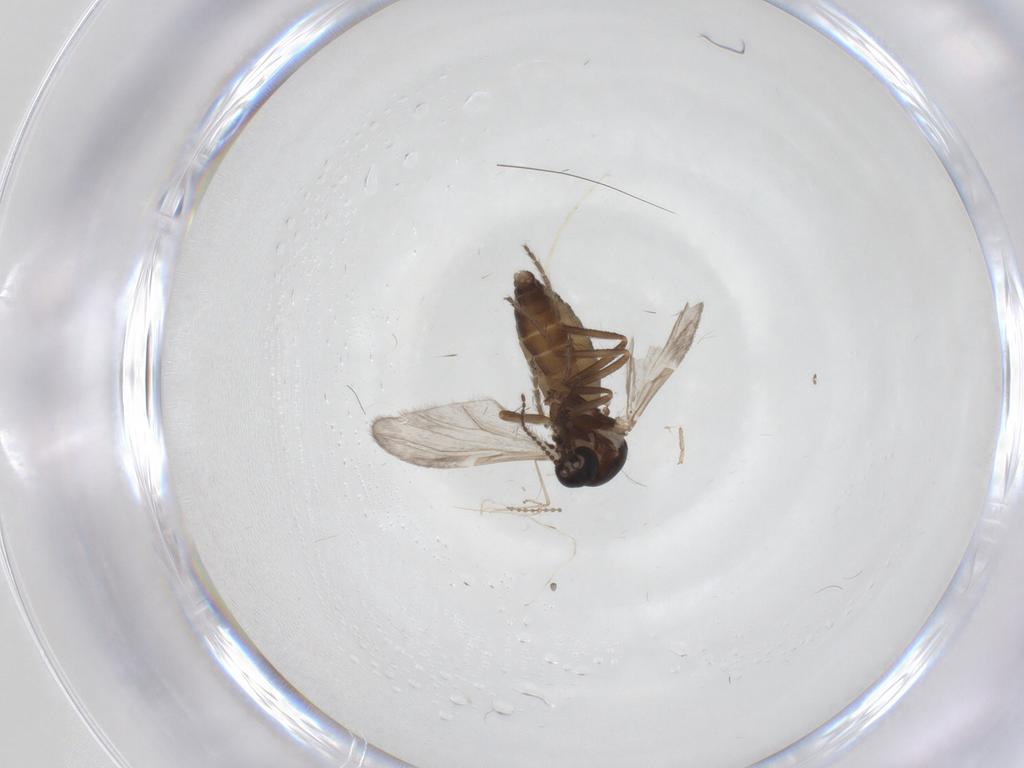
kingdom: Animalia
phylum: Arthropoda
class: Insecta
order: Diptera
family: Ceratopogonidae
